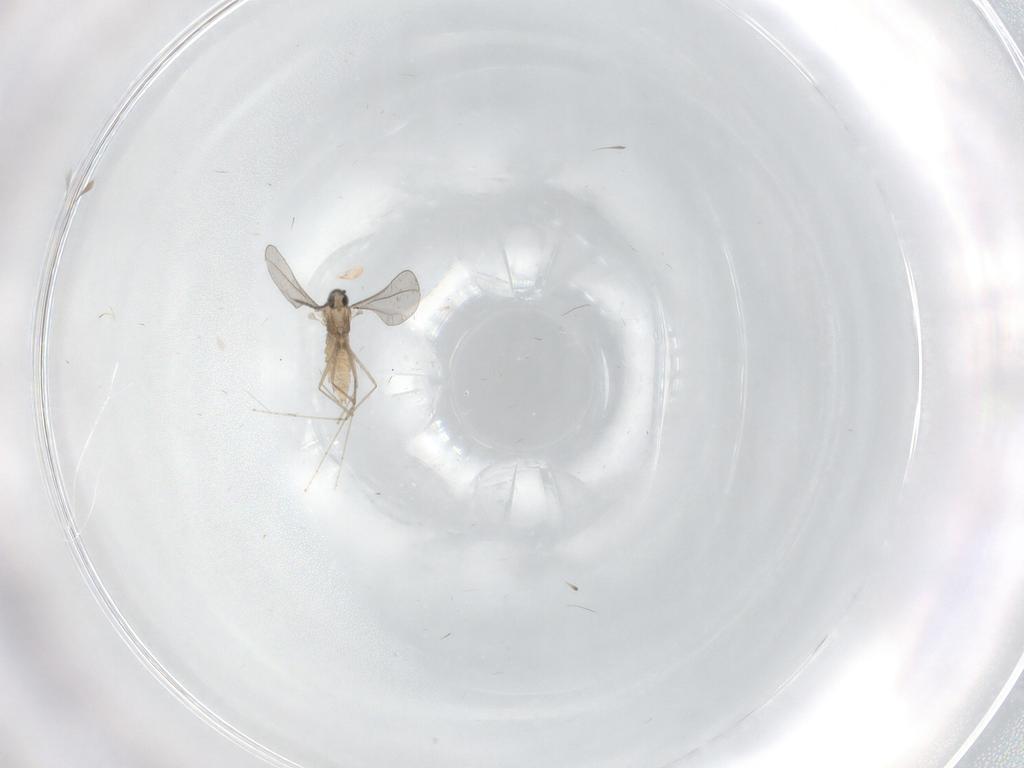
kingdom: Animalia
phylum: Arthropoda
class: Insecta
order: Diptera
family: Cecidomyiidae
